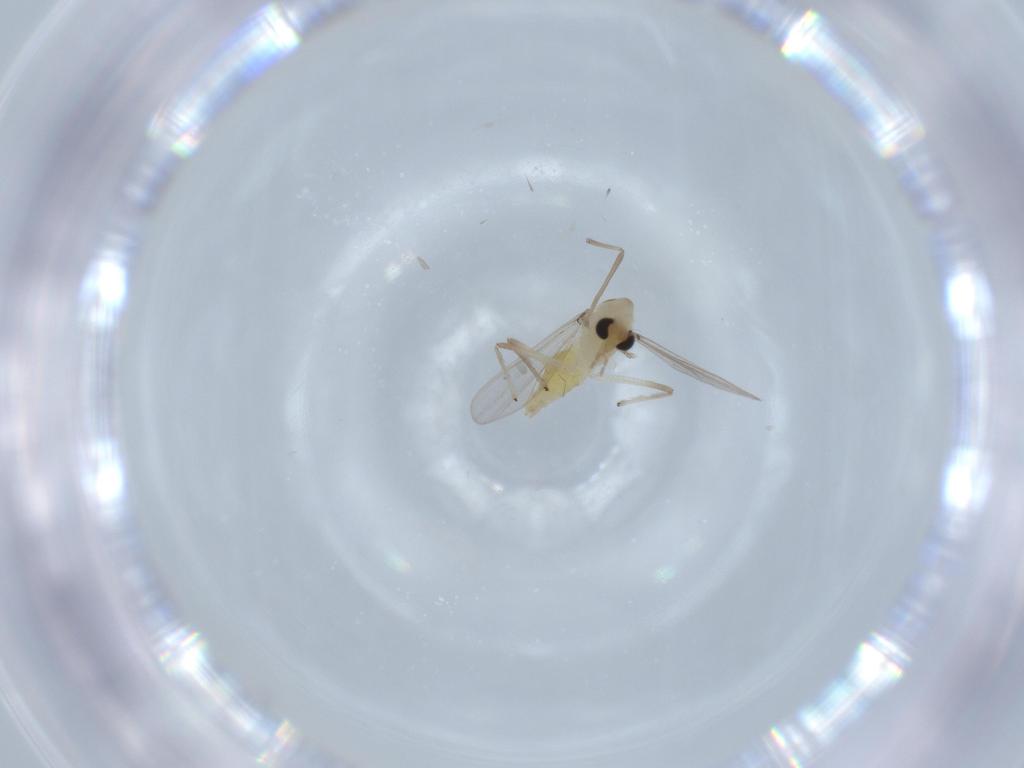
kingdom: Animalia
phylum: Arthropoda
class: Insecta
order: Diptera
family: Chironomidae
